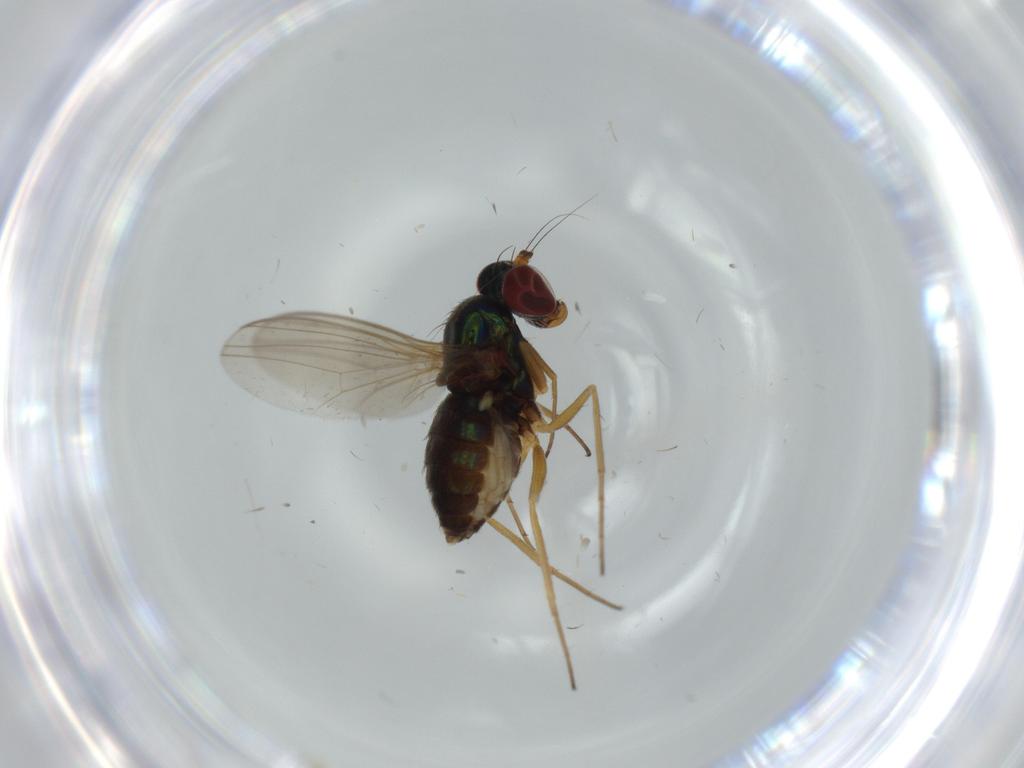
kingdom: Animalia
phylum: Arthropoda
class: Insecta
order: Diptera
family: Dolichopodidae
